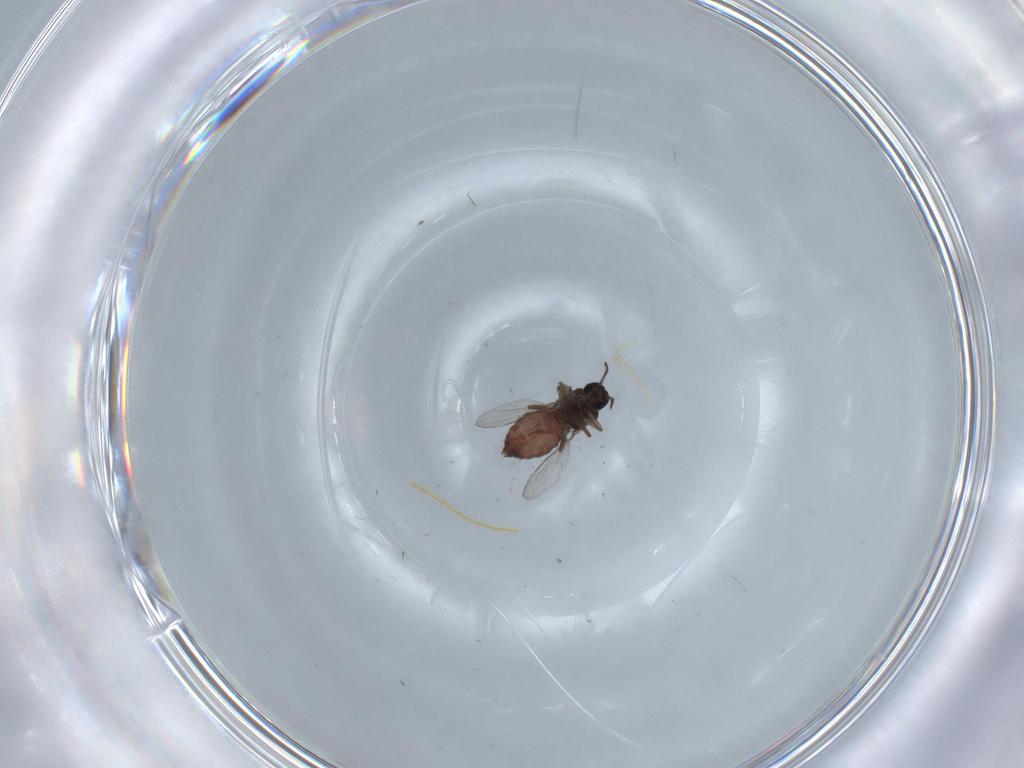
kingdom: Animalia
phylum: Arthropoda
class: Insecta
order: Diptera
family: Ceratopogonidae
